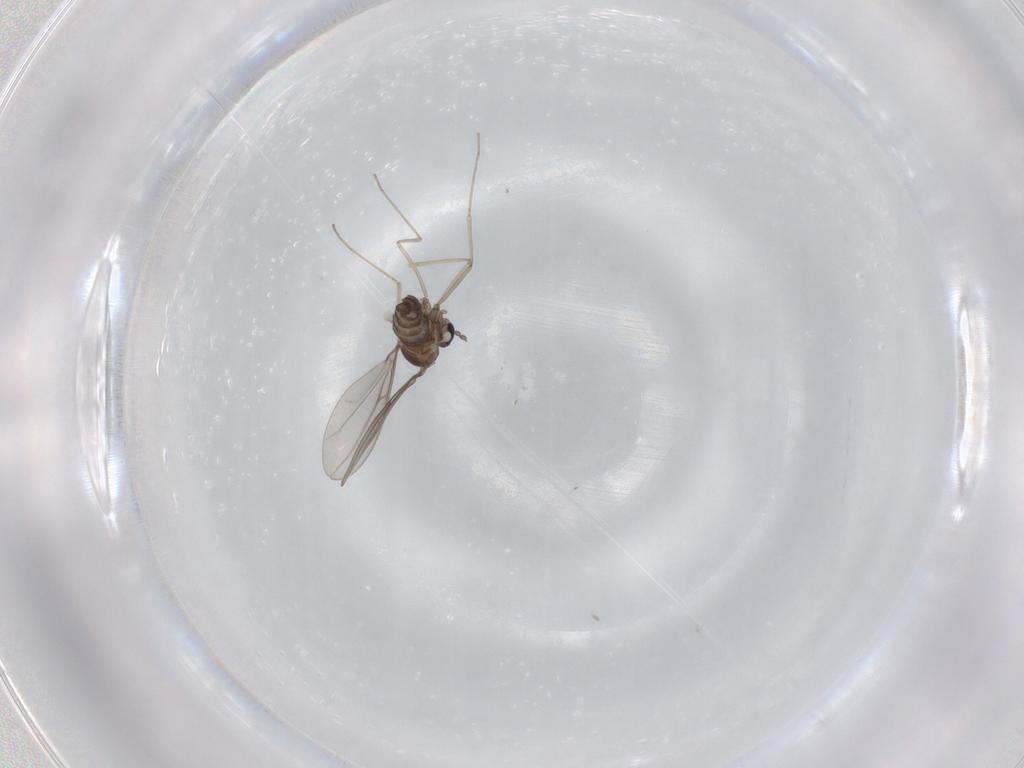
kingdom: Animalia
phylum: Arthropoda
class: Insecta
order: Diptera
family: Cecidomyiidae
